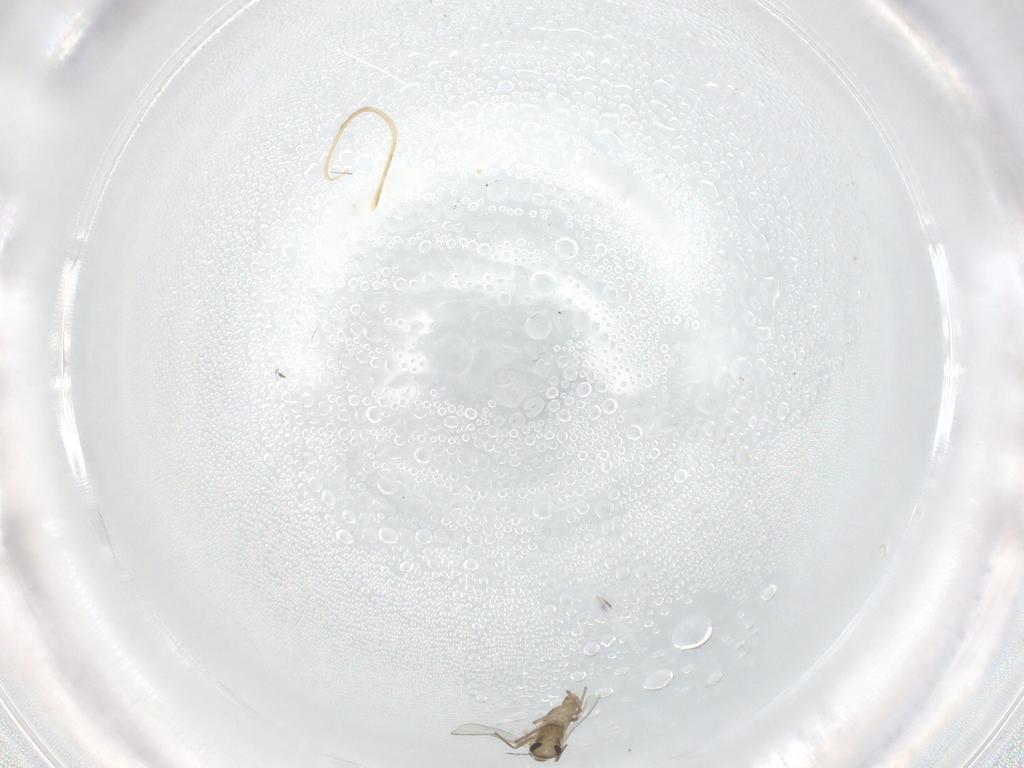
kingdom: Animalia
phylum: Arthropoda
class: Insecta
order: Diptera
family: Chironomidae
